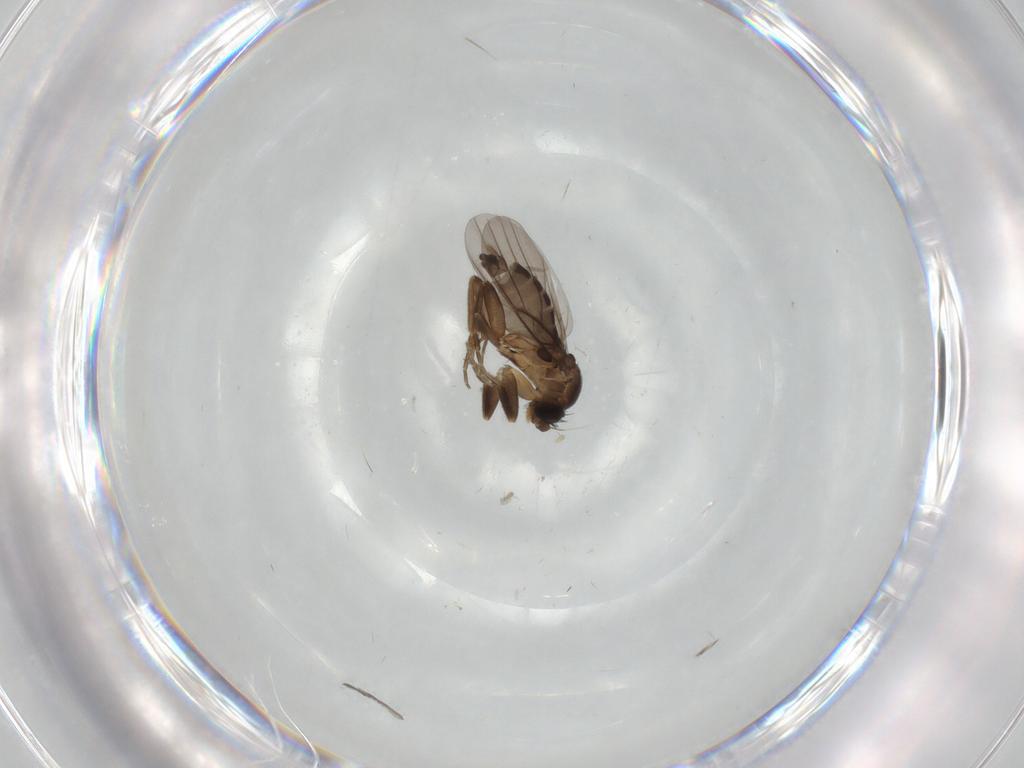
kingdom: Animalia
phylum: Arthropoda
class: Insecta
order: Diptera
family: Phoridae
